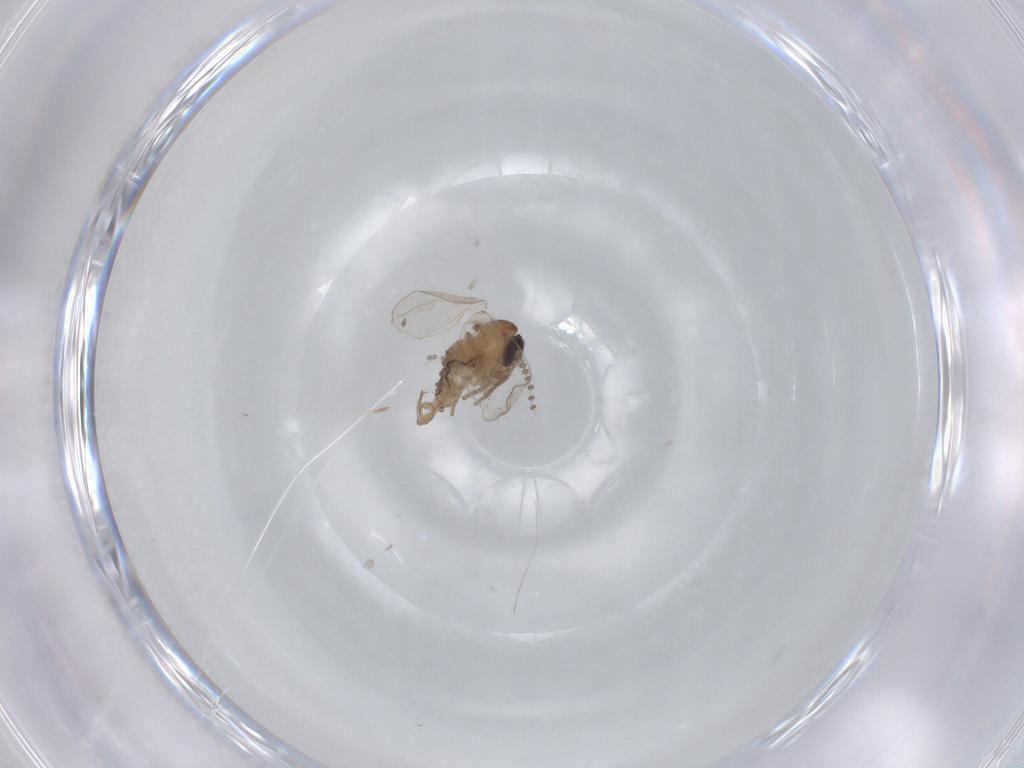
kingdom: Animalia
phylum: Arthropoda
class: Insecta
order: Diptera
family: Psychodidae
